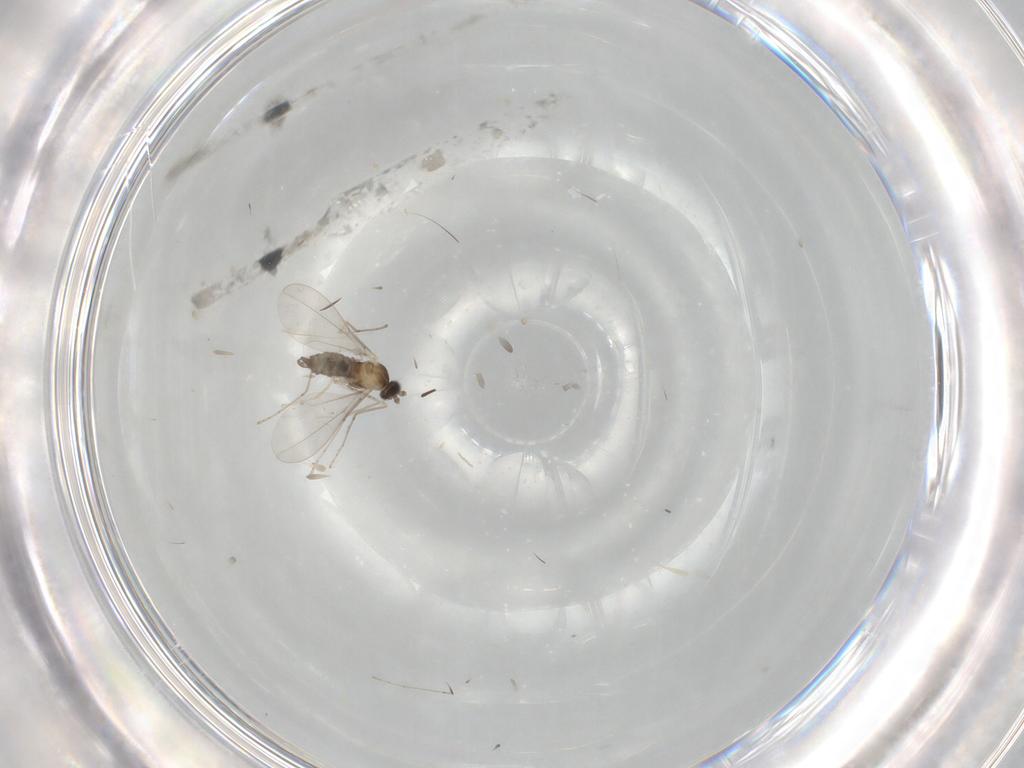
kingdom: Animalia
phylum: Arthropoda
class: Insecta
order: Diptera
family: Cecidomyiidae
